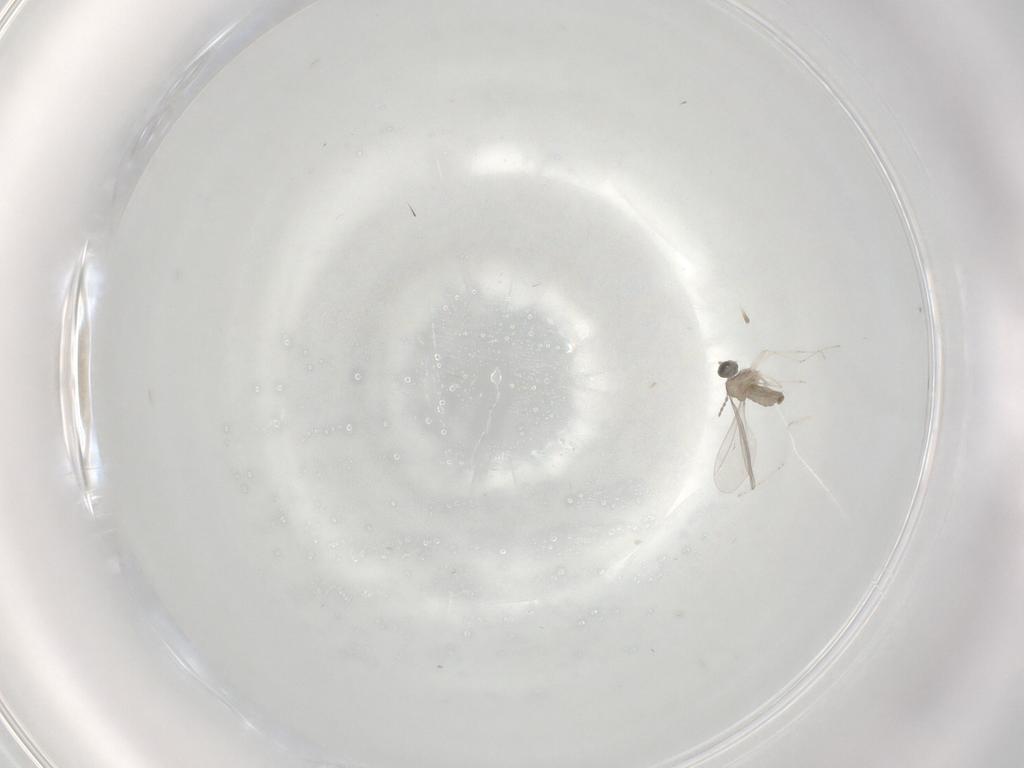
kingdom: Animalia
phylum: Arthropoda
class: Insecta
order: Diptera
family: Cecidomyiidae
